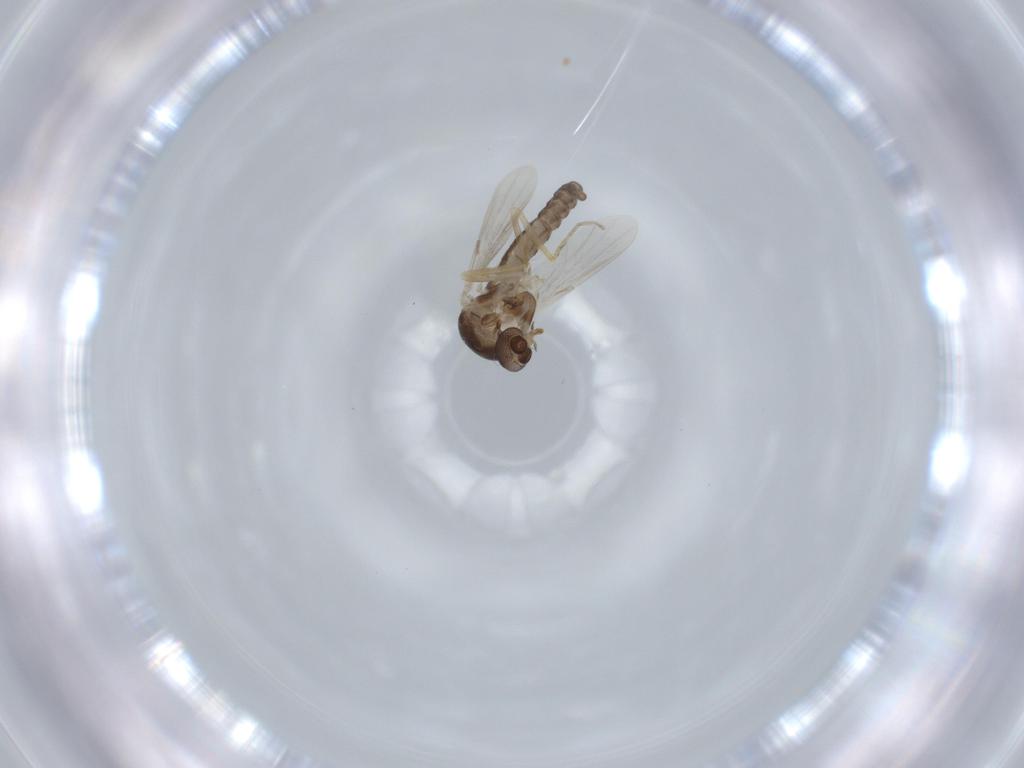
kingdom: Animalia
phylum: Arthropoda
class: Insecta
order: Diptera
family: Ceratopogonidae
